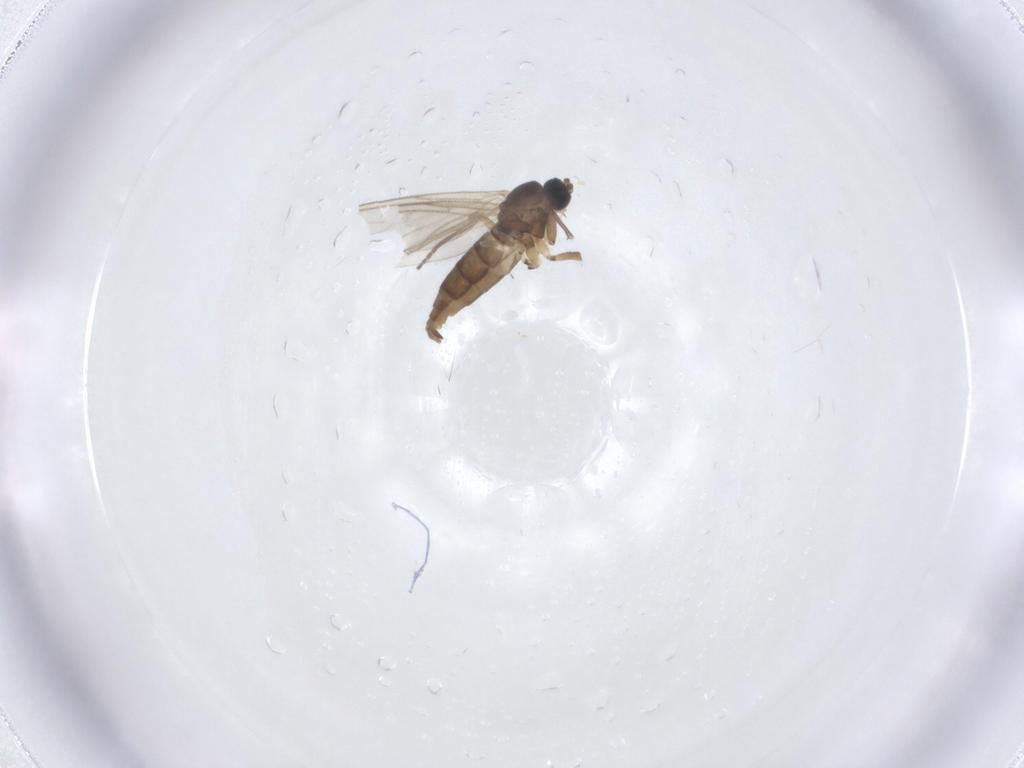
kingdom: Animalia
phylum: Arthropoda
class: Insecta
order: Diptera
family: Sciaridae
